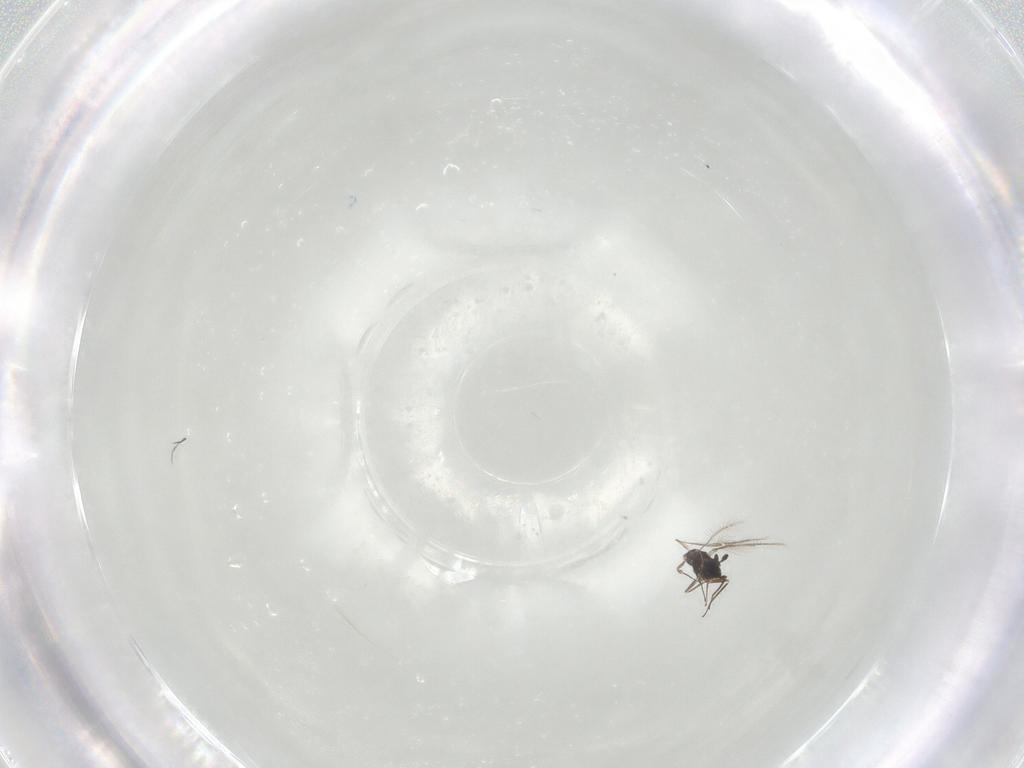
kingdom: Animalia
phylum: Arthropoda
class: Insecta
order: Diptera
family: Chironomidae
